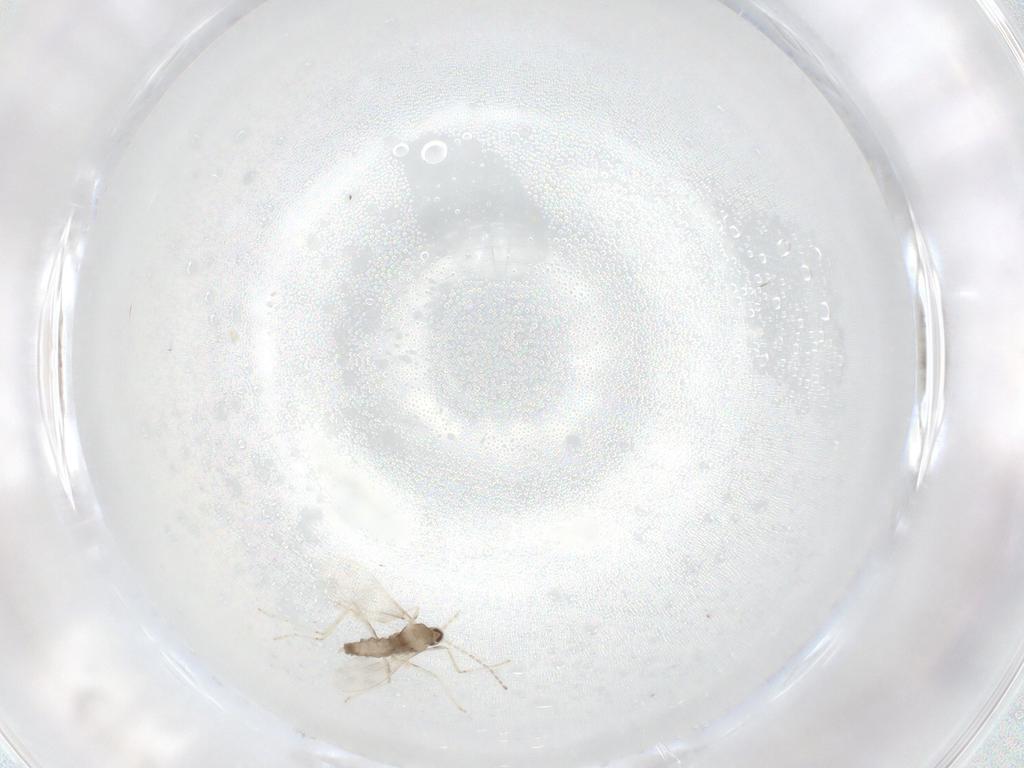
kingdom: Animalia
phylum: Arthropoda
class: Insecta
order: Diptera
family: Cecidomyiidae
